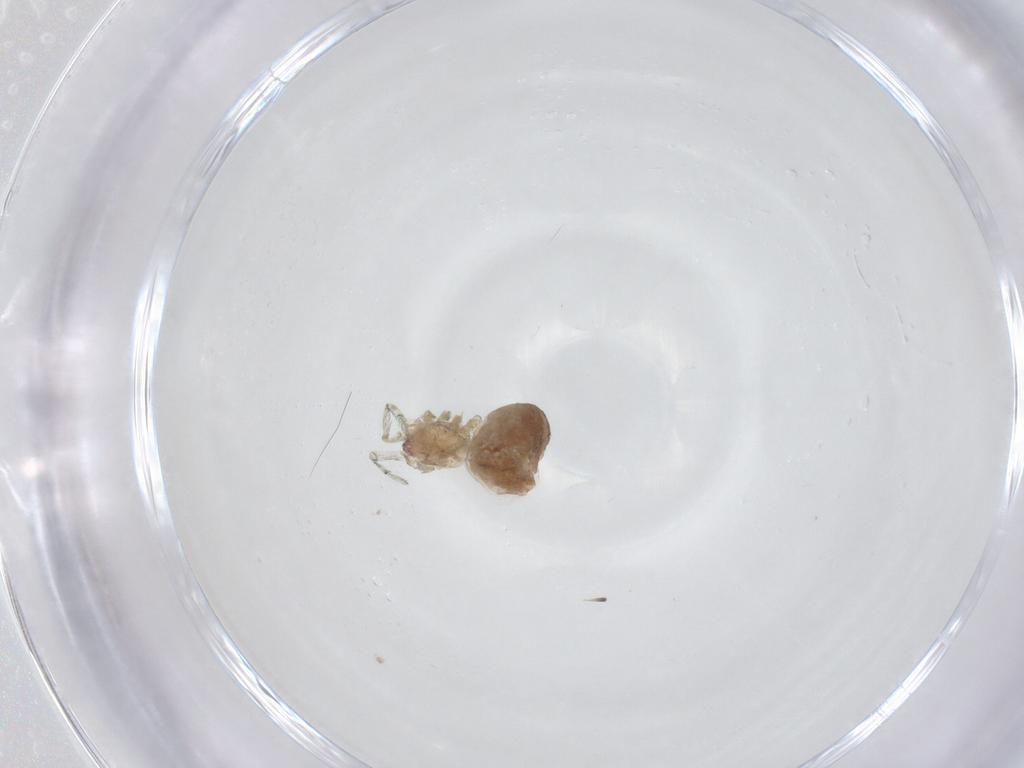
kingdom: Animalia
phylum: Arthropoda
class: Arachnida
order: Araneae
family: Dictynidae
